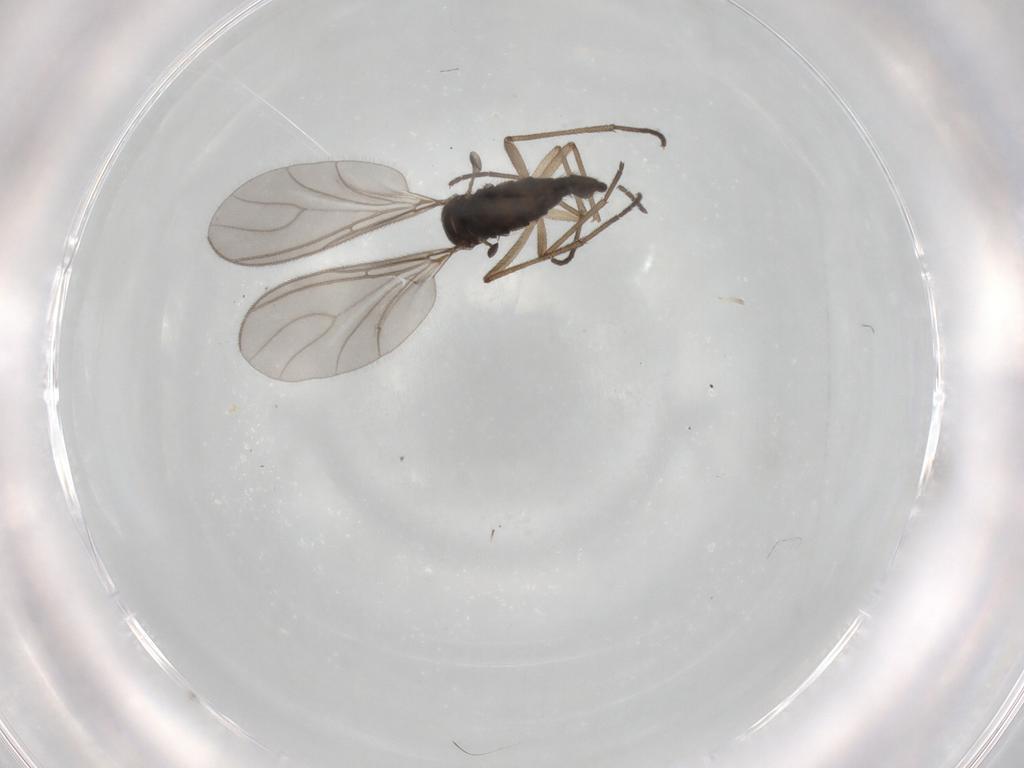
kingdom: Animalia
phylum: Arthropoda
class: Insecta
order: Diptera
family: Sciaridae
